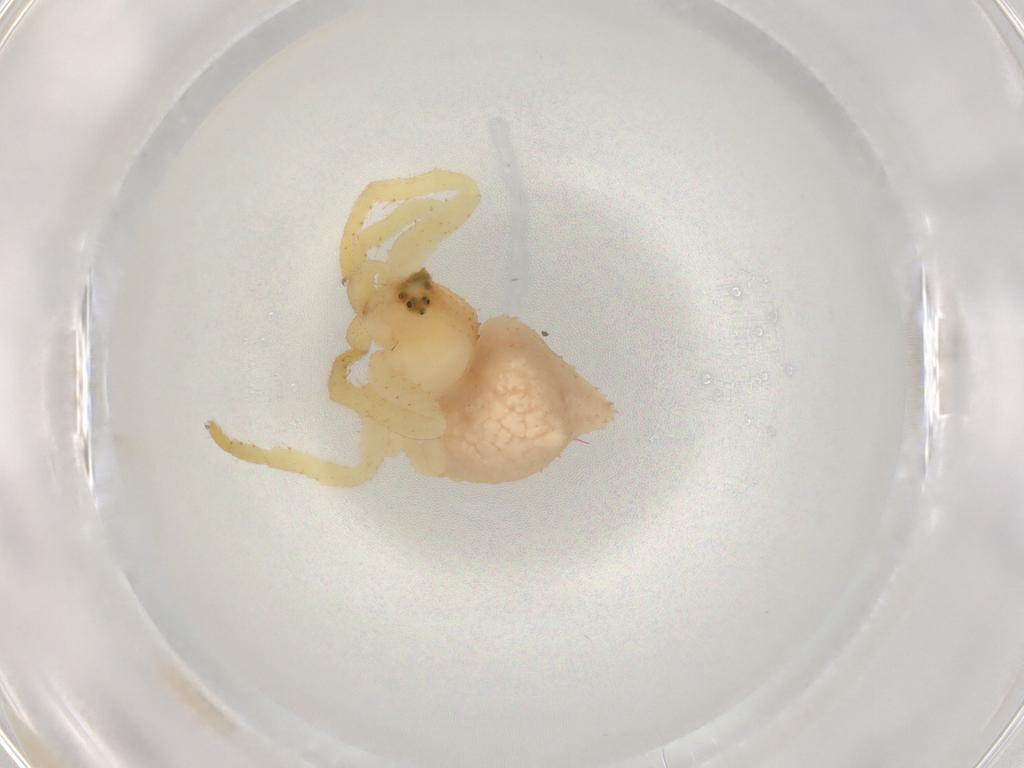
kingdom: Animalia
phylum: Arthropoda
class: Arachnida
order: Araneae
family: Thomisidae
